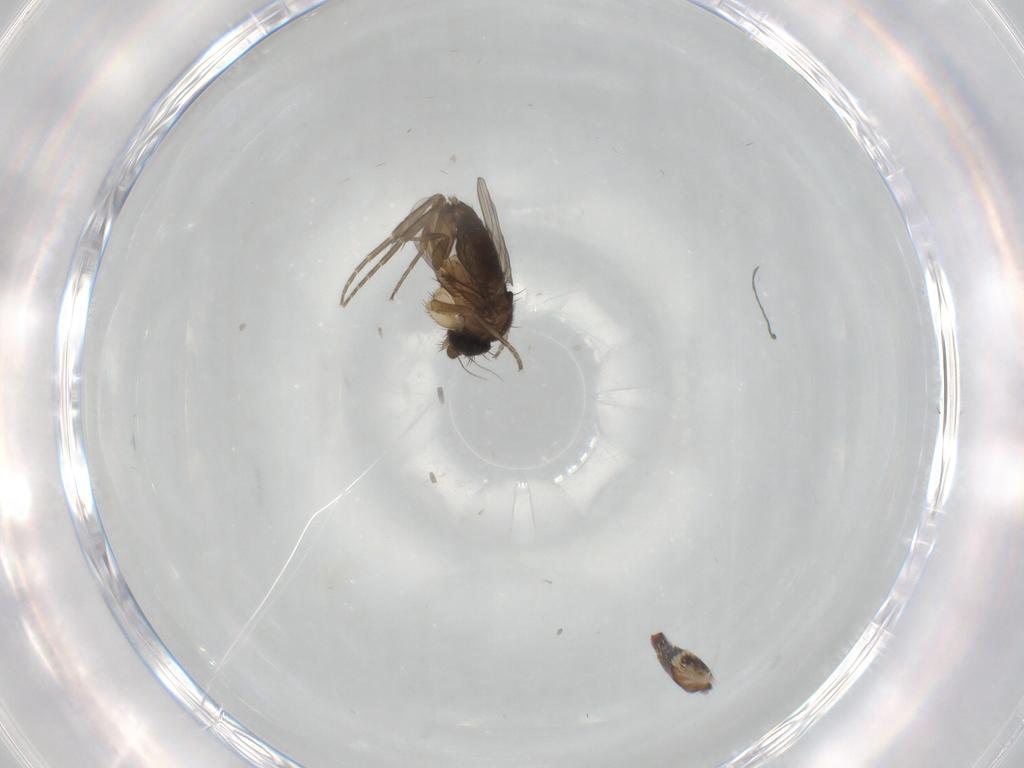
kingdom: Animalia
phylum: Arthropoda
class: Insecta
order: Diptera
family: Phoridae
